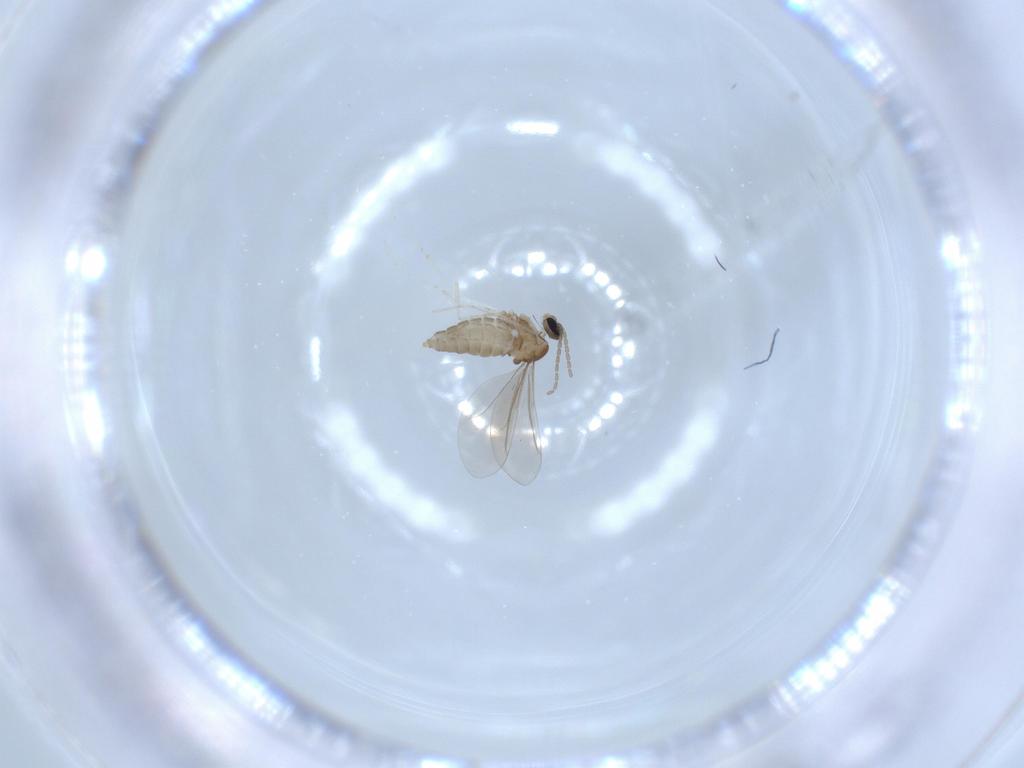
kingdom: Animalia
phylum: Arthropoda
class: Insecta
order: Diptera
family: Cecidomyiidae
